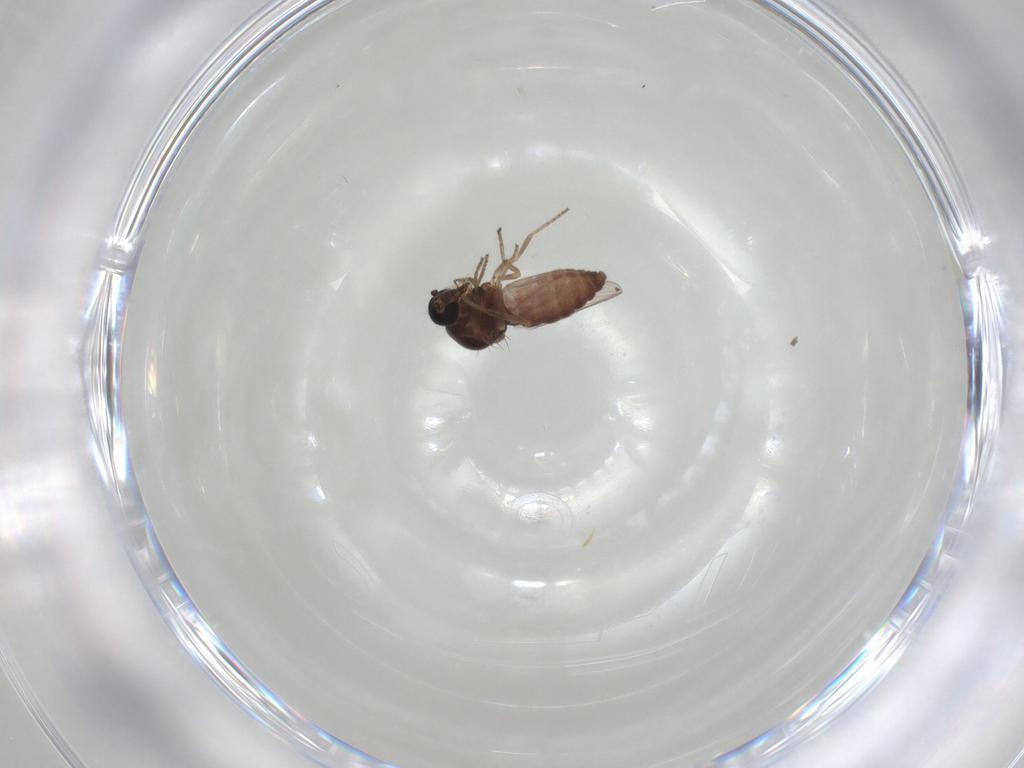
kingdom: Animalia
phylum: Arthropoda
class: Insecta
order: Diptera
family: Ceratopogonidae
